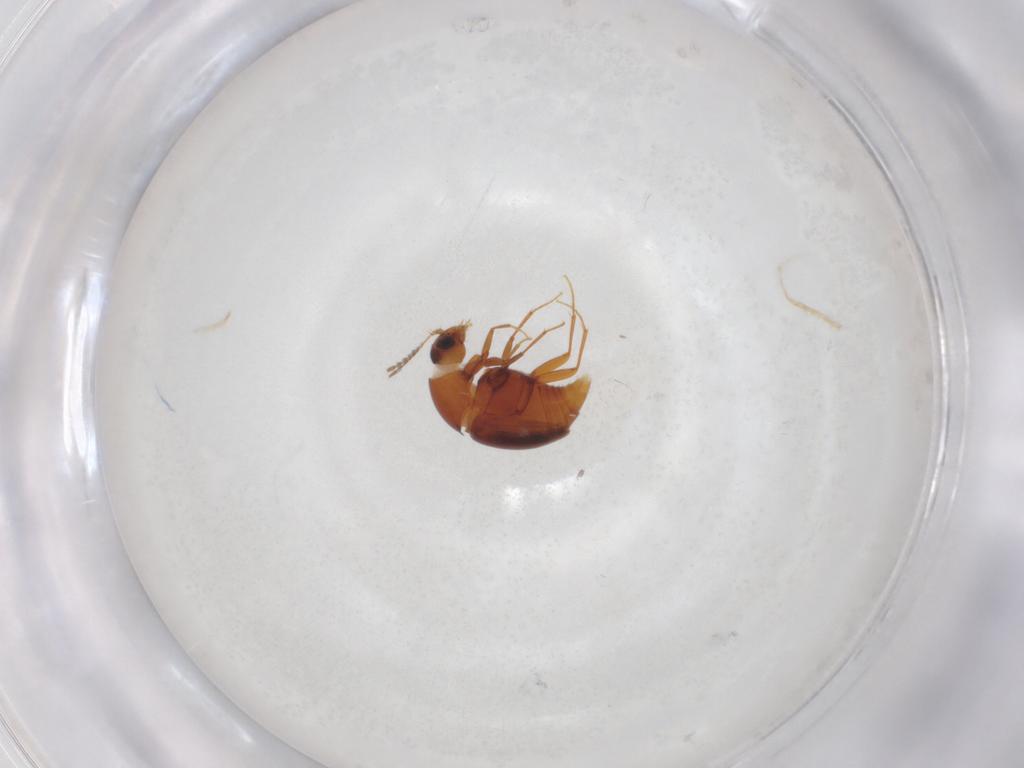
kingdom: Animalia
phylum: Arthropoda
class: Insecta
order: Coleoptera
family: Staphylinidae
